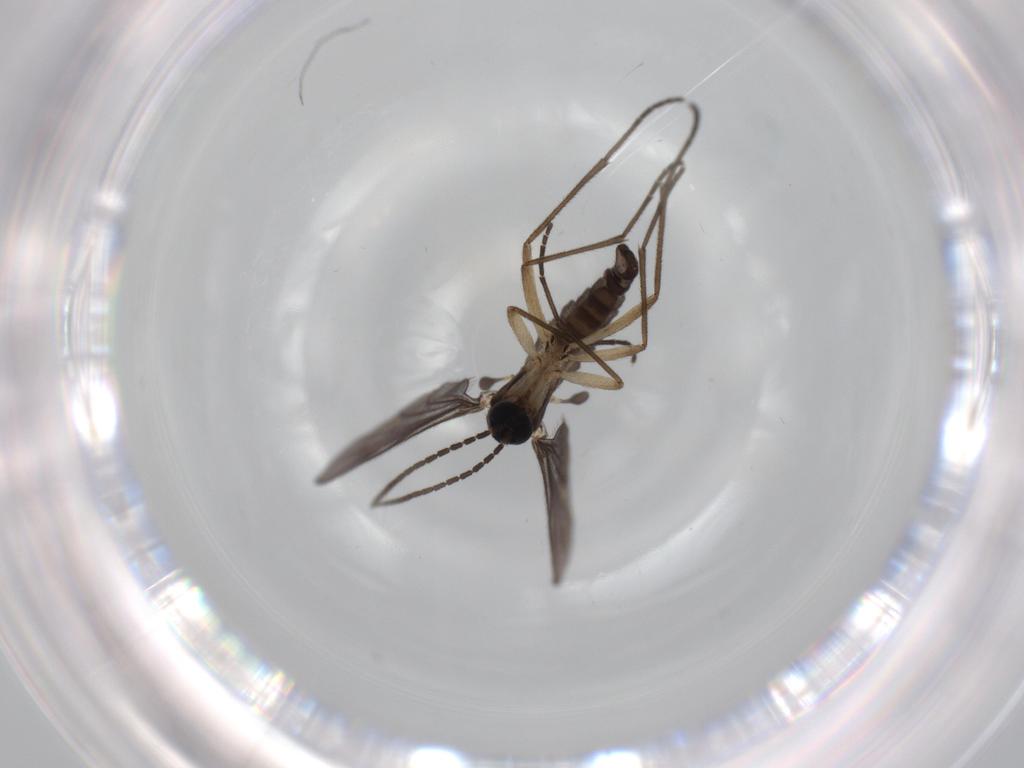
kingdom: Animalia
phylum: Arthropoda
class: Insecta
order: Diptera
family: Sciaridae
